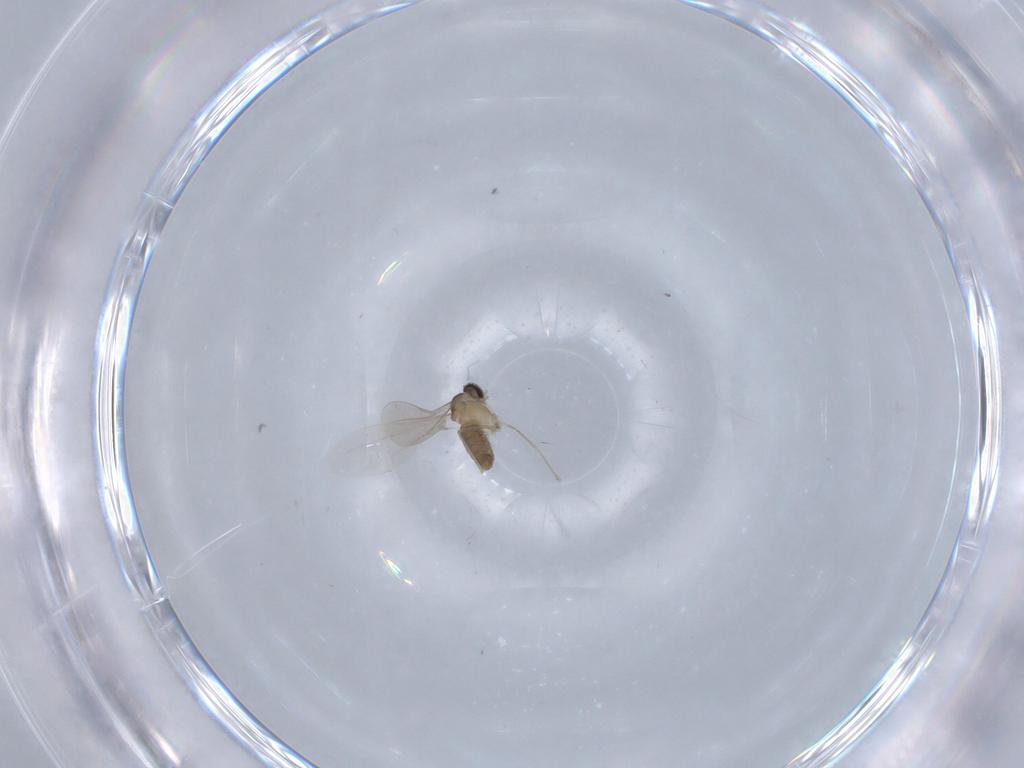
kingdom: Animalia
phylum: Arthropoda
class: Insecta
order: Diptera
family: Cecidomyiidae
